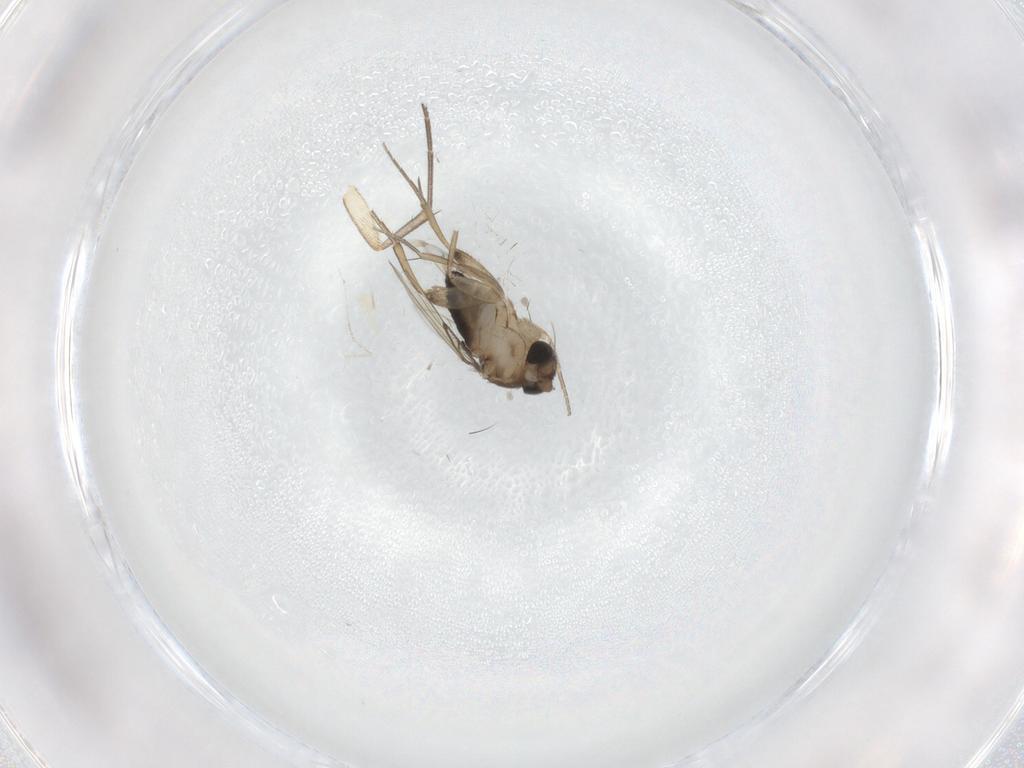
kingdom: Animalia
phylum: Arthropoda
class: Insecta
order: Diptera
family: Phoridae
